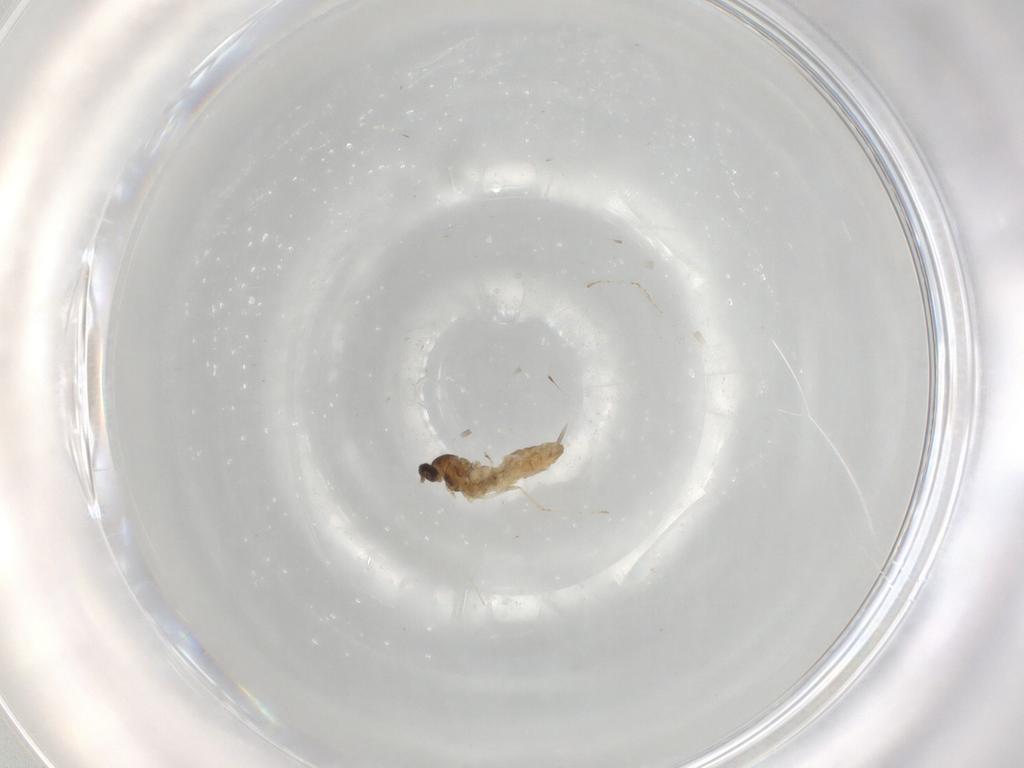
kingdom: Animalia
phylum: Arthropoda
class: Insecta
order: Diptera
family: Cecidomyiidae
